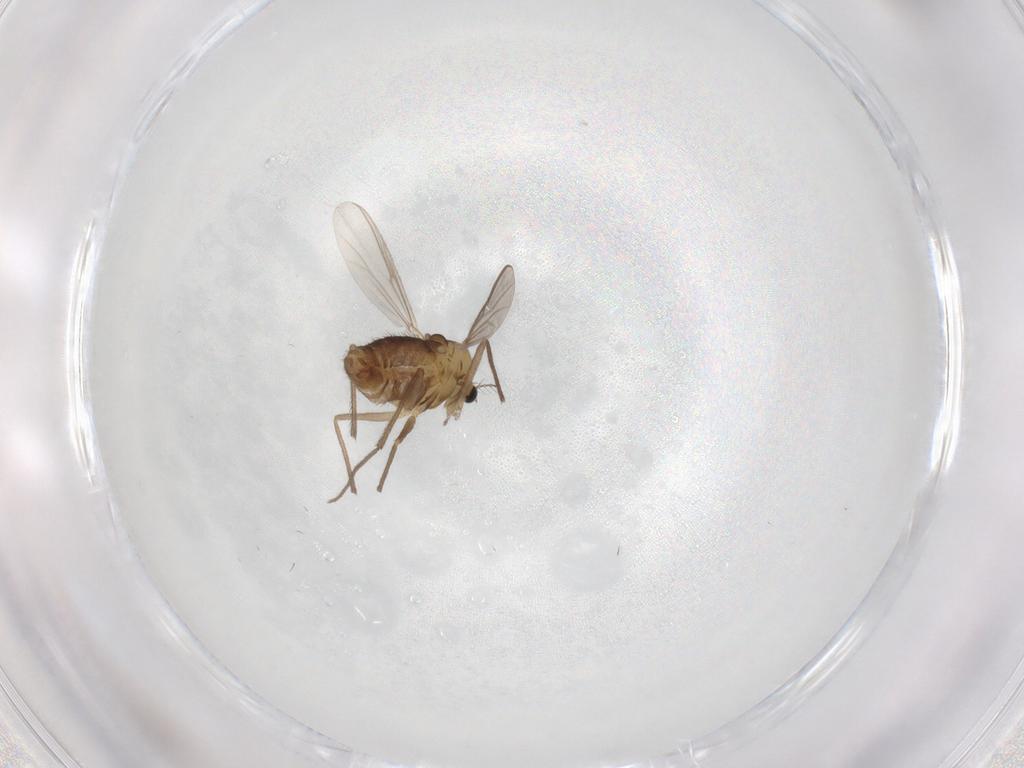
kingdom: Animalia
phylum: Arthropoda
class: Insecta
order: Diptera
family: Chironomidae
